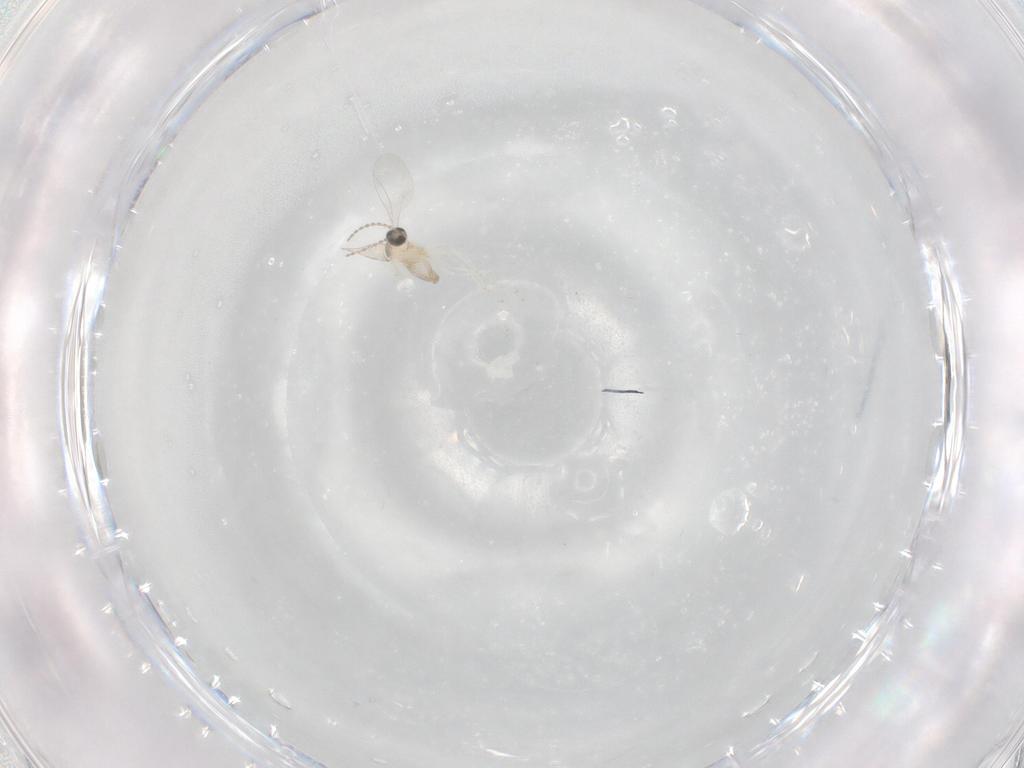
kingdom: Animalia
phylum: Arthropoda
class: Insecta
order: Diptera
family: Cecidomyiidae
